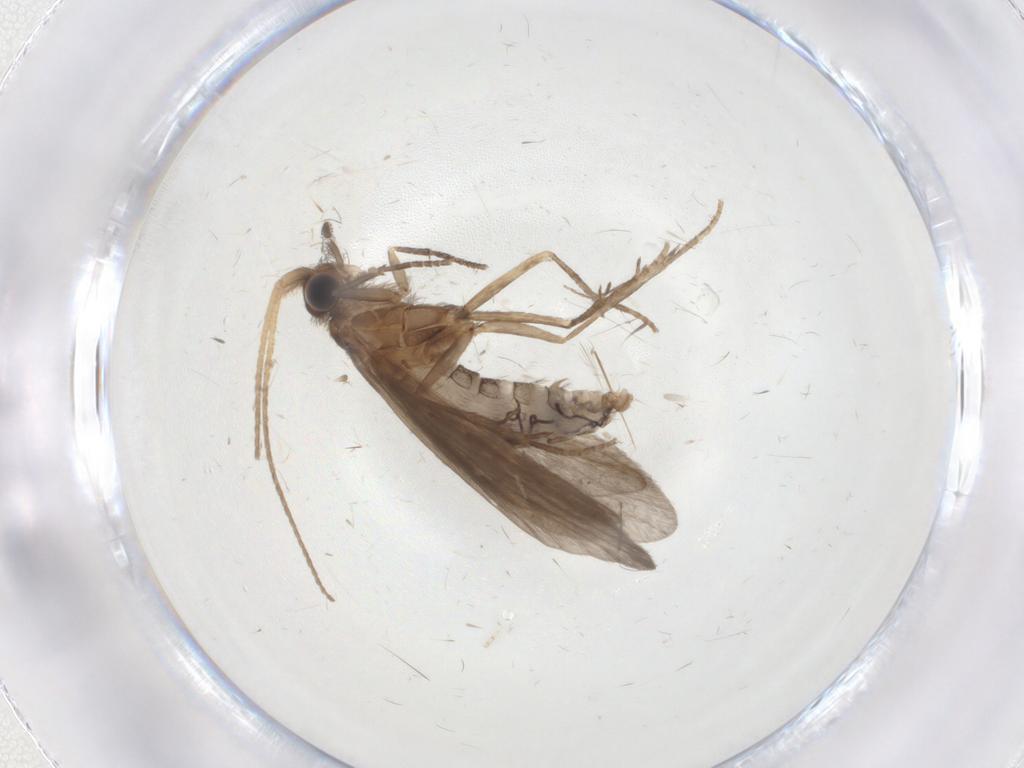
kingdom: Animalia
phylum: Arthropoda
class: Insecta
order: Trichoptera
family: Helicopsychidae
